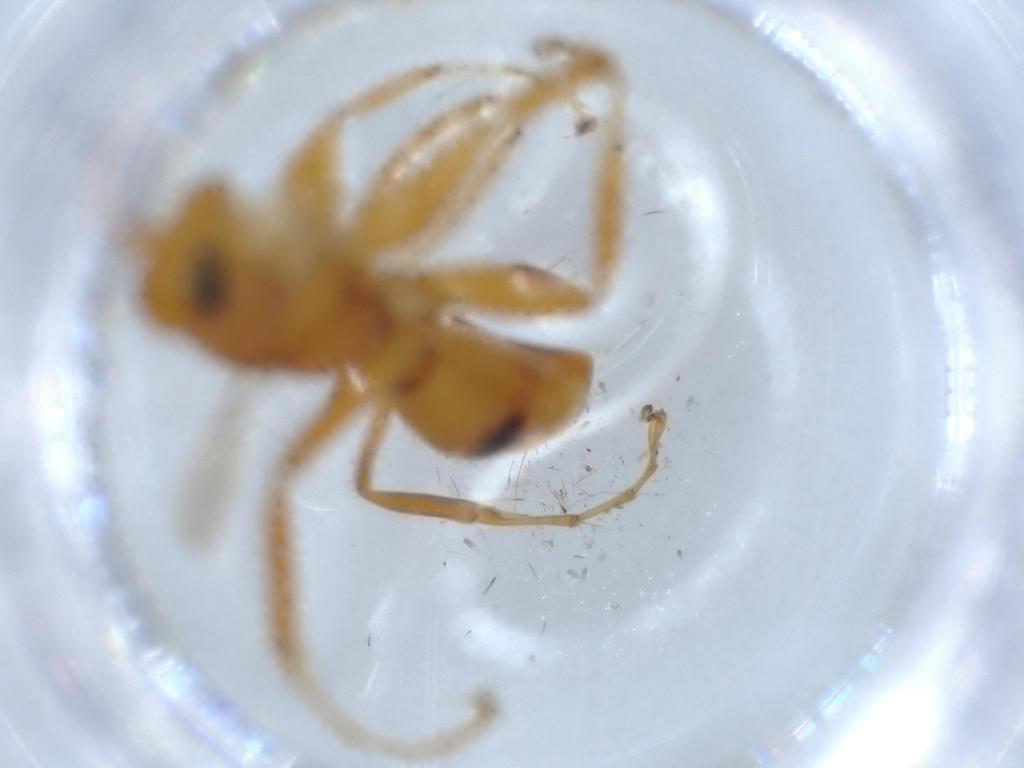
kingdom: Animalia
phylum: Arthropoda
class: Insecta
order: Hymenoptera
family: Rhopalosomatidae
